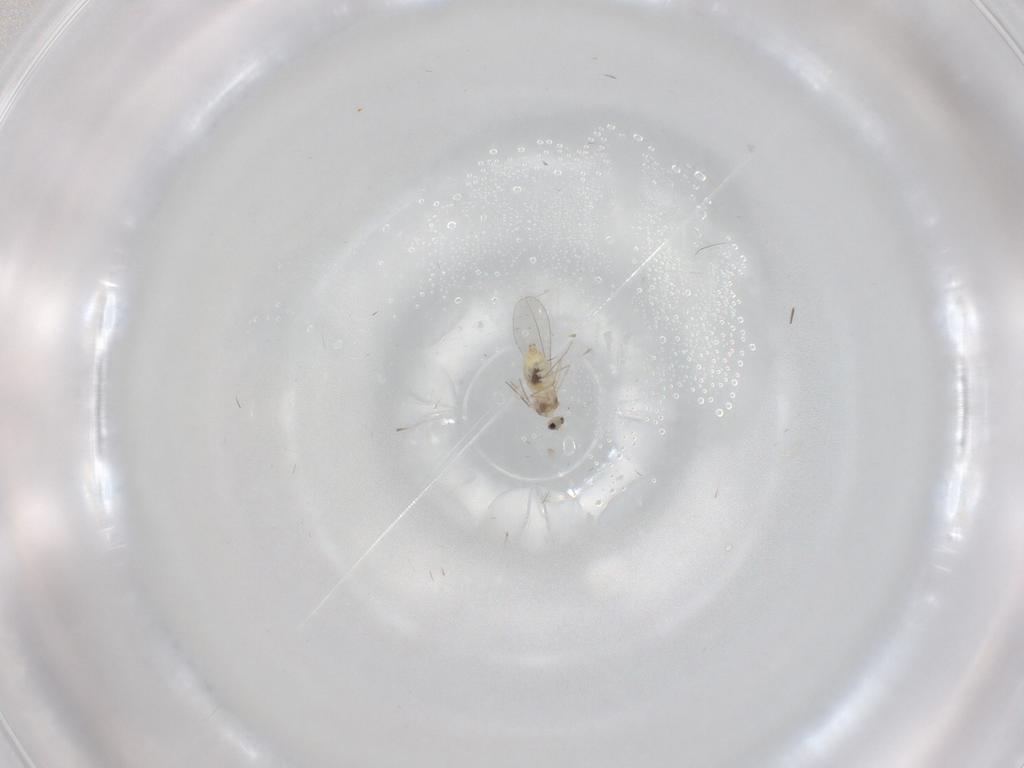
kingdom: Animalia
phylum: Arthropoda
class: Insecta
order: Diptera
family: Cecidomyiidae
